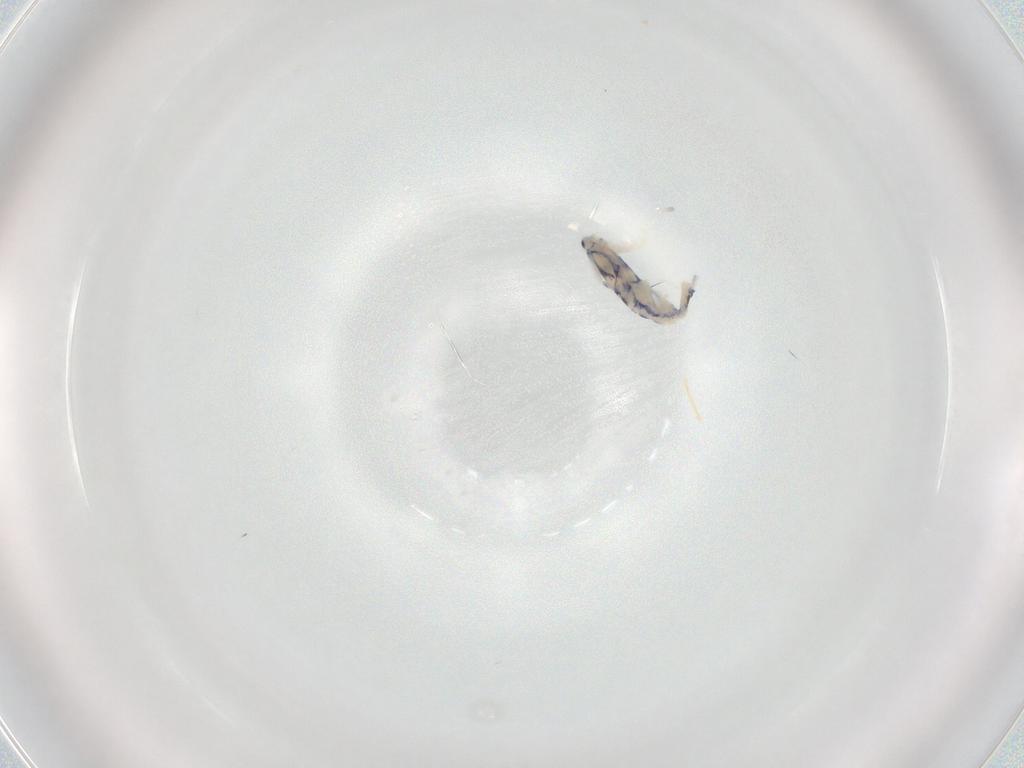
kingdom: Animalia
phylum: Arthropoda
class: Collembola
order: Entomobryomorpha
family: Entomobryidae
